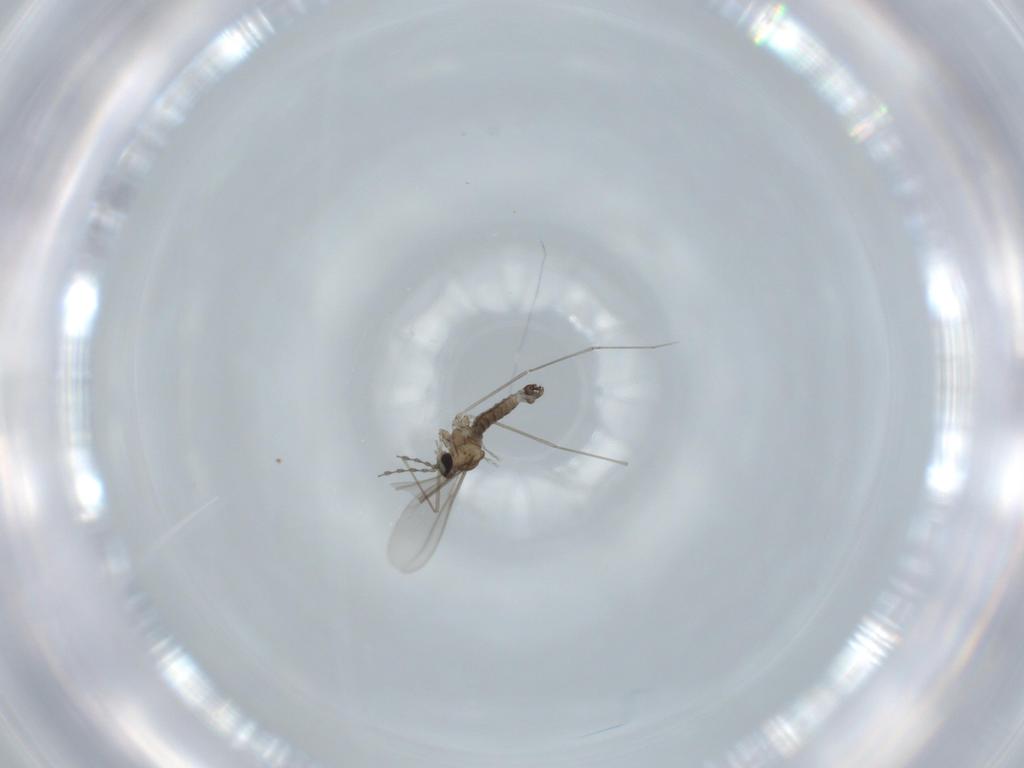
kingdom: Animalia
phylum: Arthropoda
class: Insecta
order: Diptera
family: Cecidomyiidae
